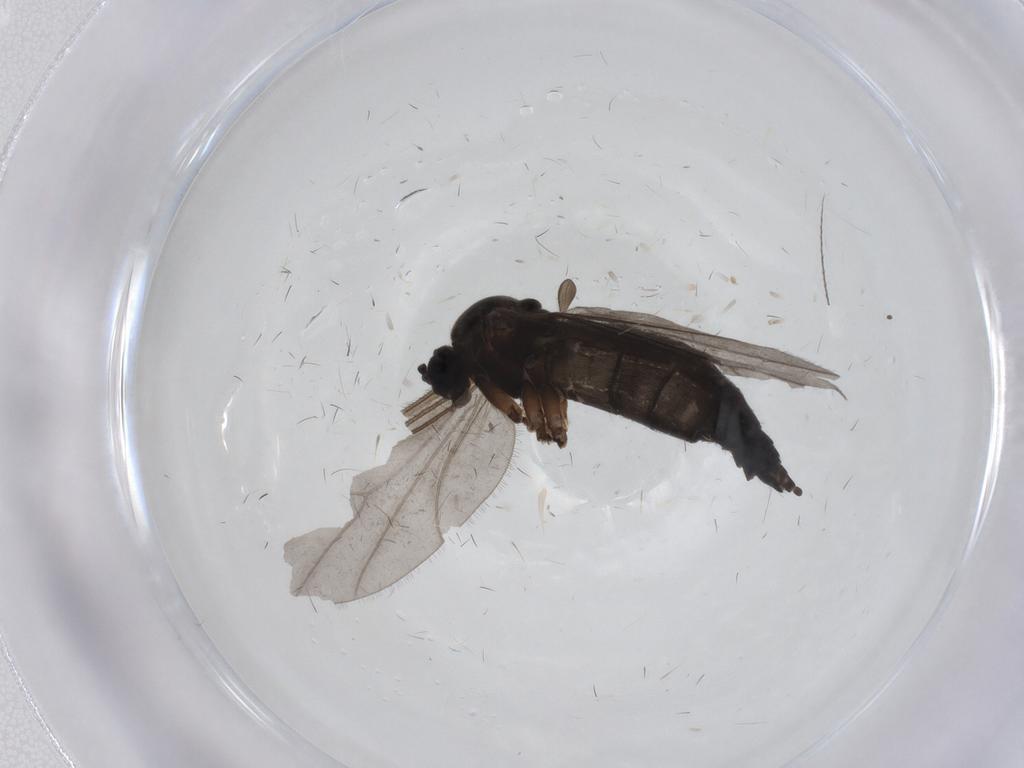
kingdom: Animalia
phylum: Arthropoda
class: Insecta
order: Diptera
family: Sciaridae
